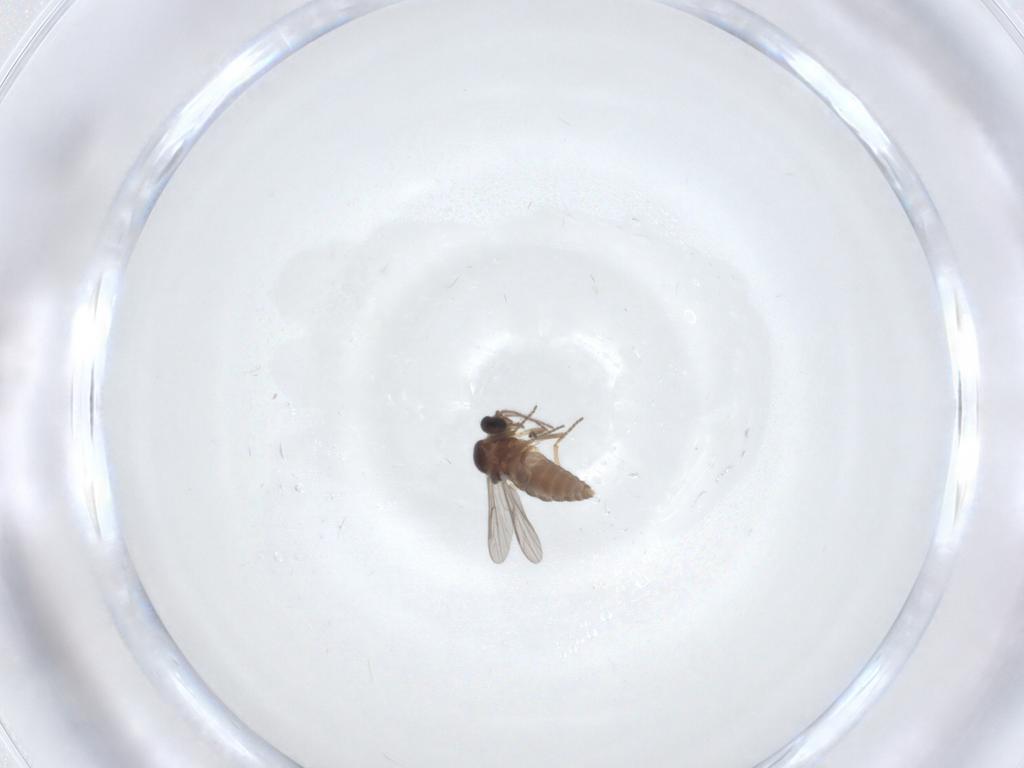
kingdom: Animalia
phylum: Arthropoda
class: Insecta
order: Diptera
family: Ceratopogonidae
